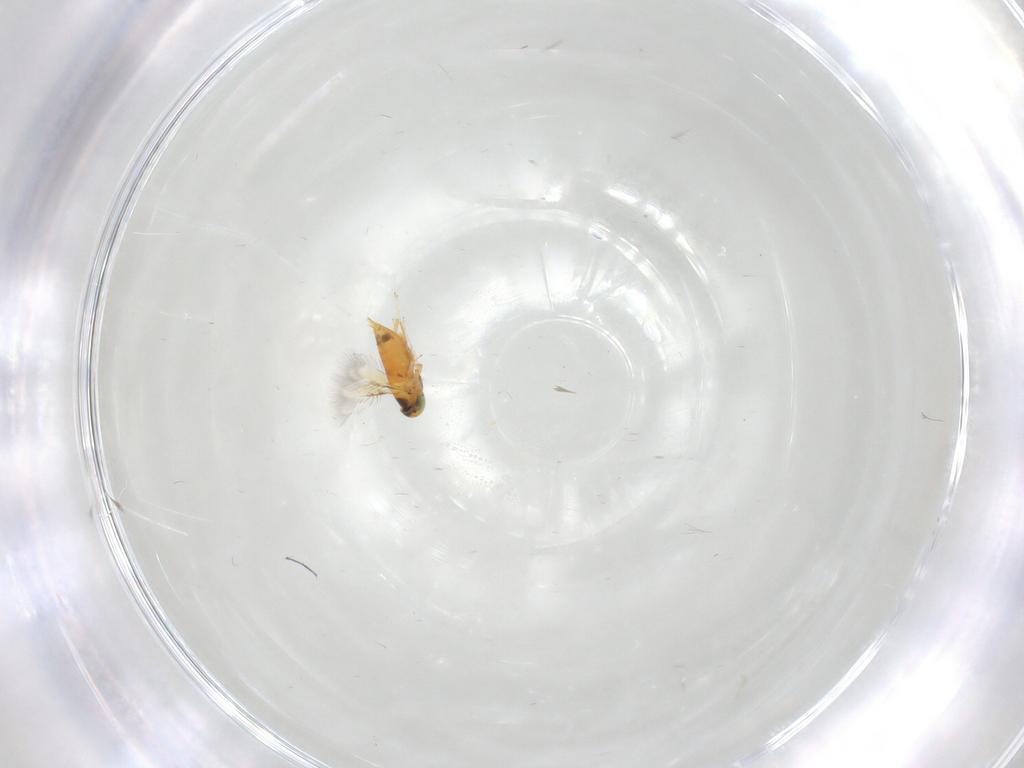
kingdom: Animalia
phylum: Arthropoda
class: Insecta
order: Hymenoptera
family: Signiphoridae
